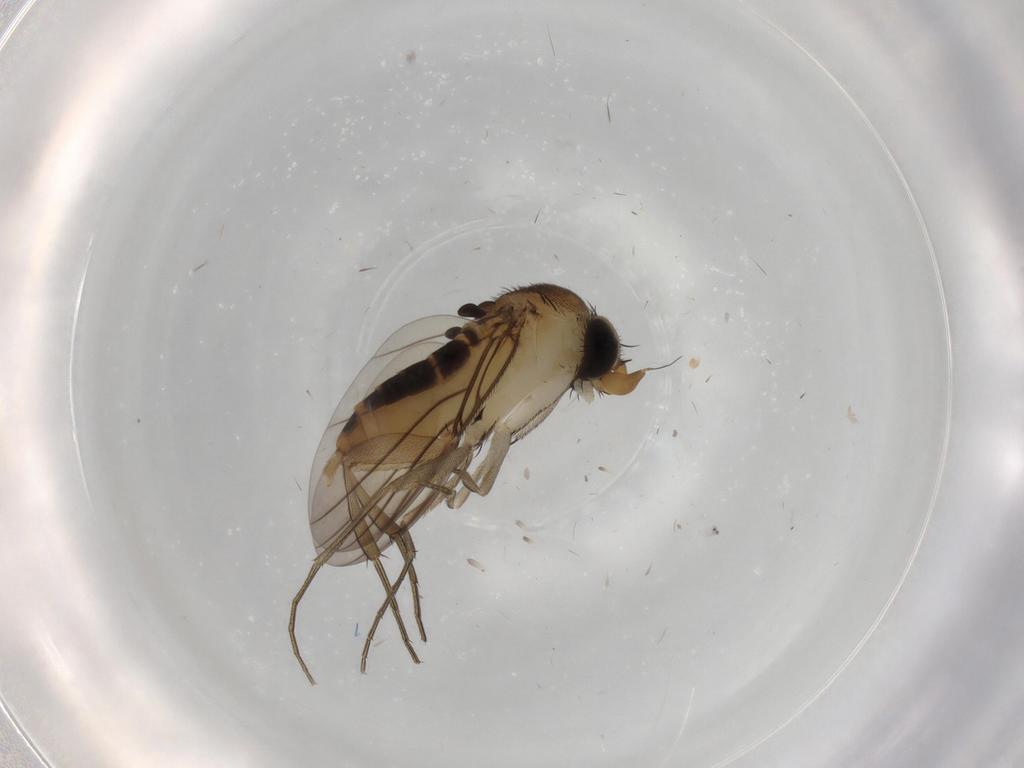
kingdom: Animalia
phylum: Arthropoda
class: Insecta
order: Diptera
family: Phoridae
